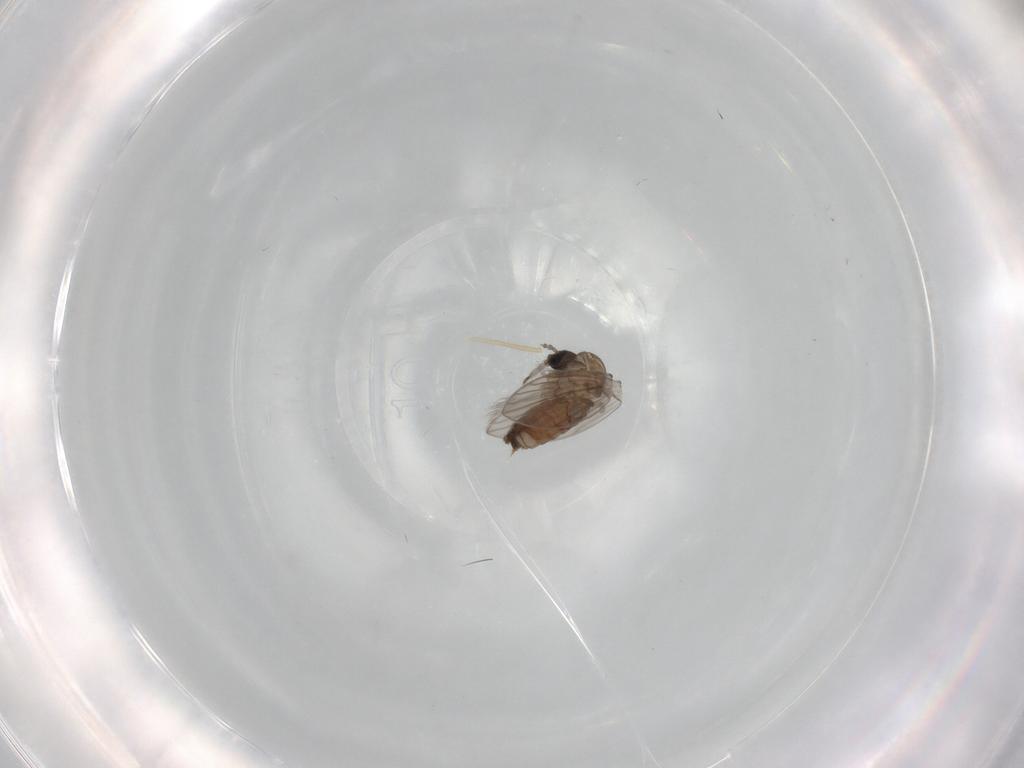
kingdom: Animalia
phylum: Arthropoda
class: Insecta
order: Diptera
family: Psychodidae
